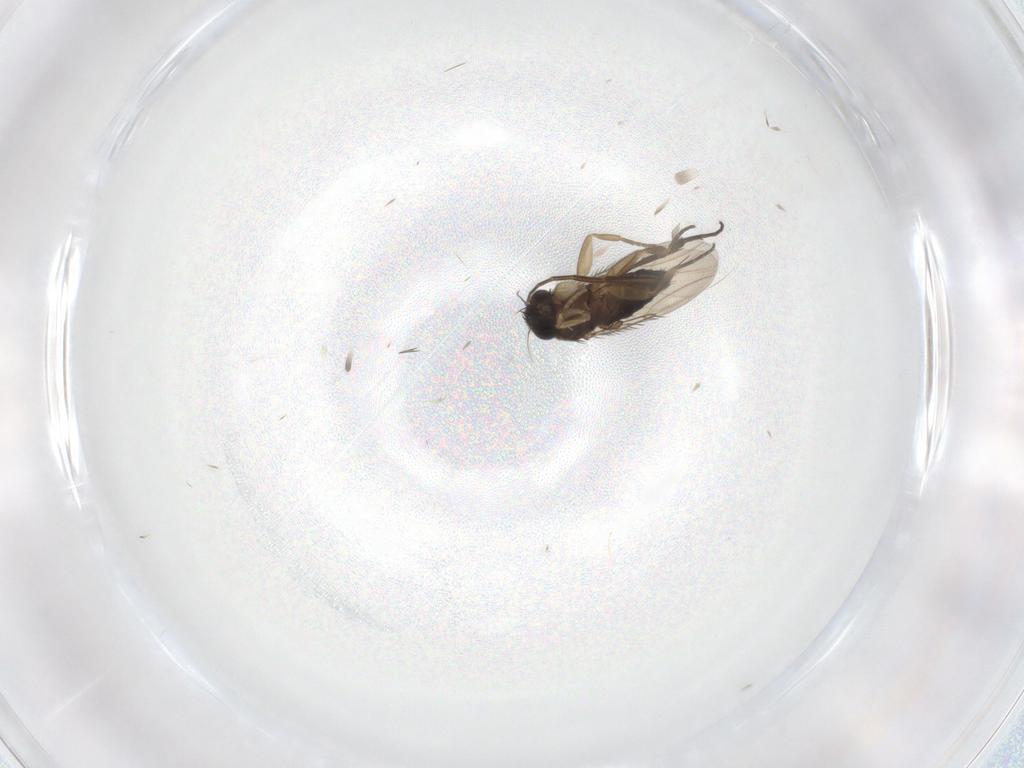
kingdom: Animalia
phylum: Arthropoda
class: Insecta
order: Diptera
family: Phoridae
